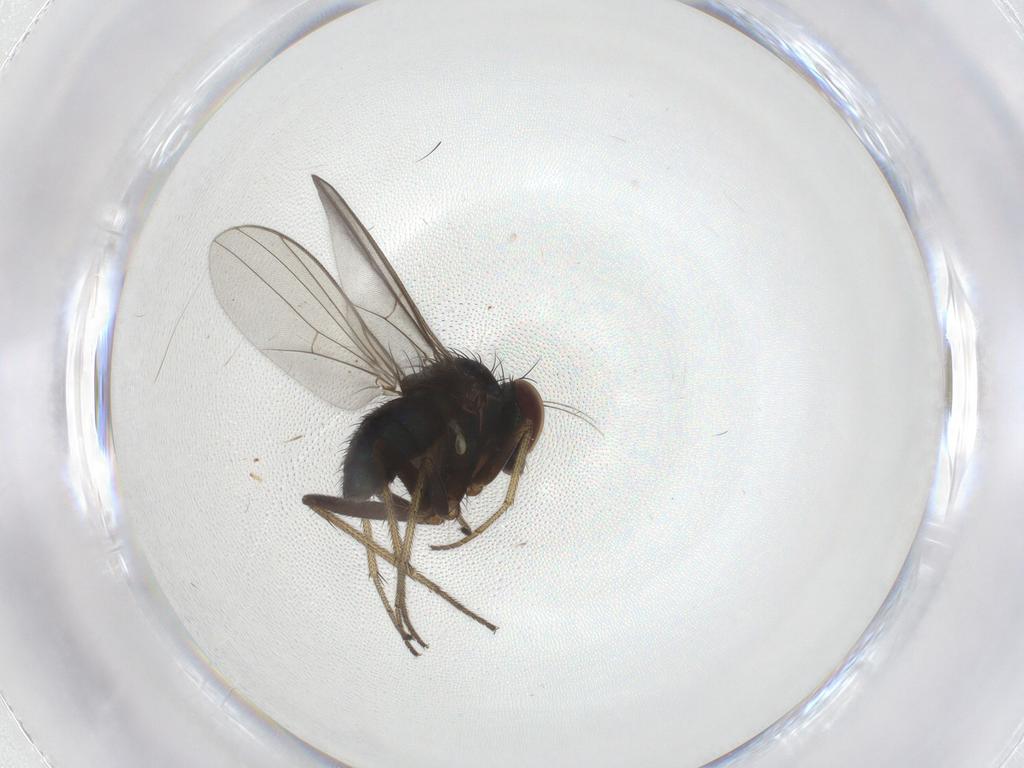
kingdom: Animalia
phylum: Arthropoda
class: Insecta
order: Diptera
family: Dolichopodidae
